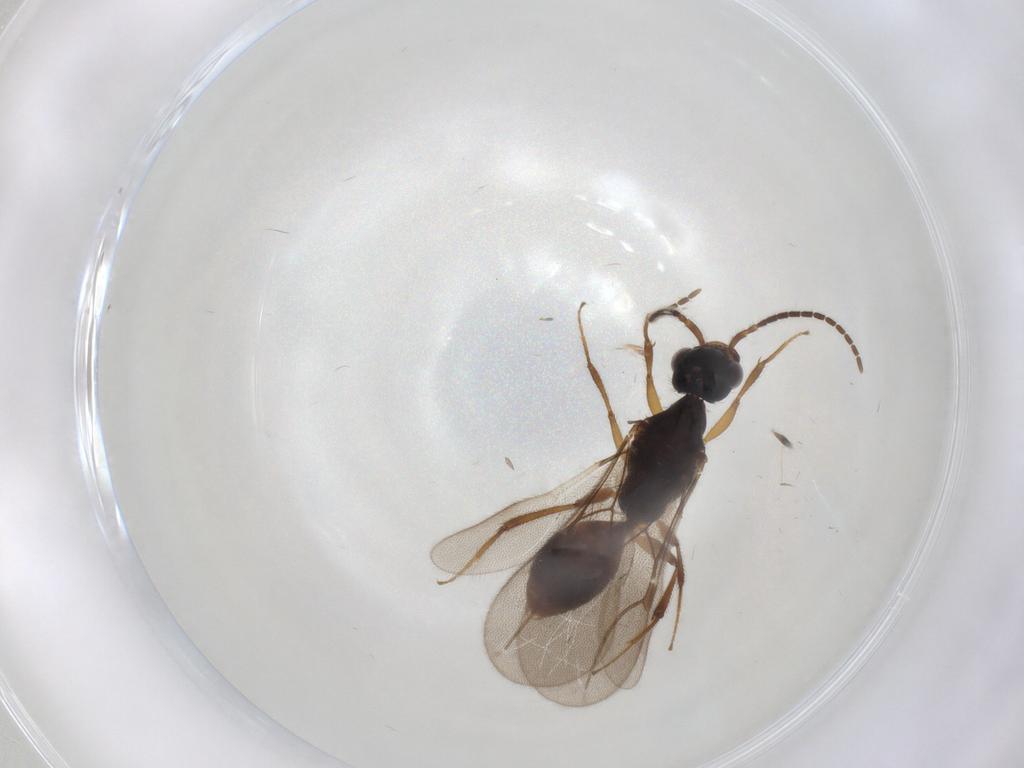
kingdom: Animalia
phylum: Arthropoda
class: Insecta
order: Hymenoptera
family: Bethylidae
